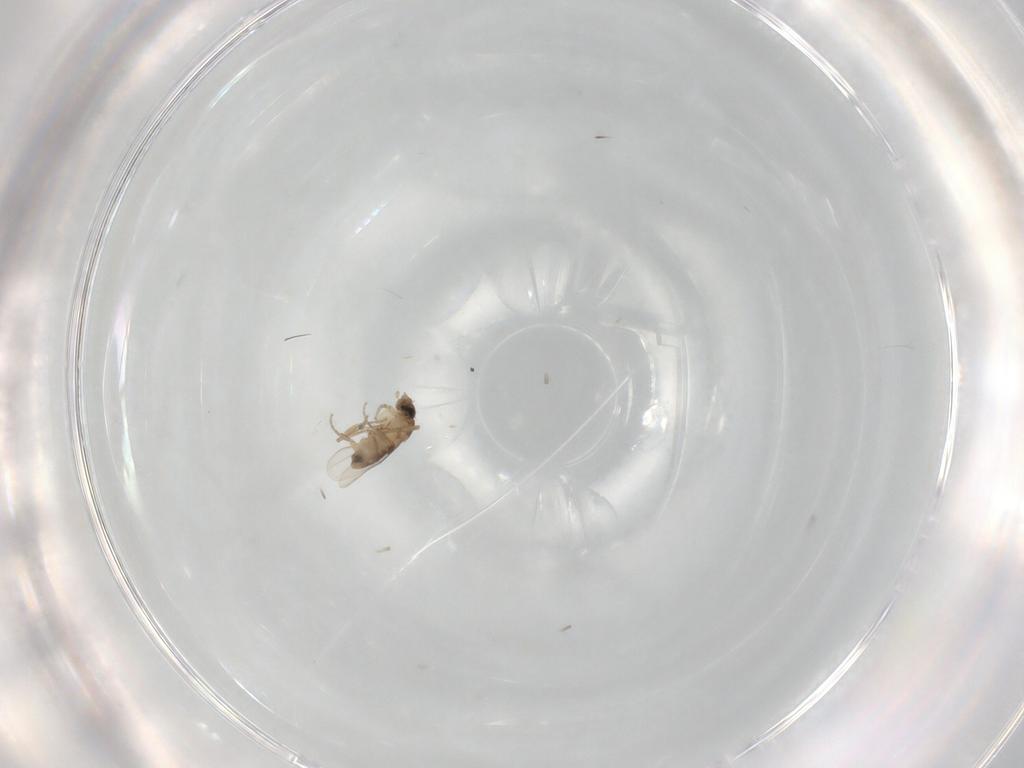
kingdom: Animalia
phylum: Arthropoda
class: Insecta
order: Diptera
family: Phoridae
